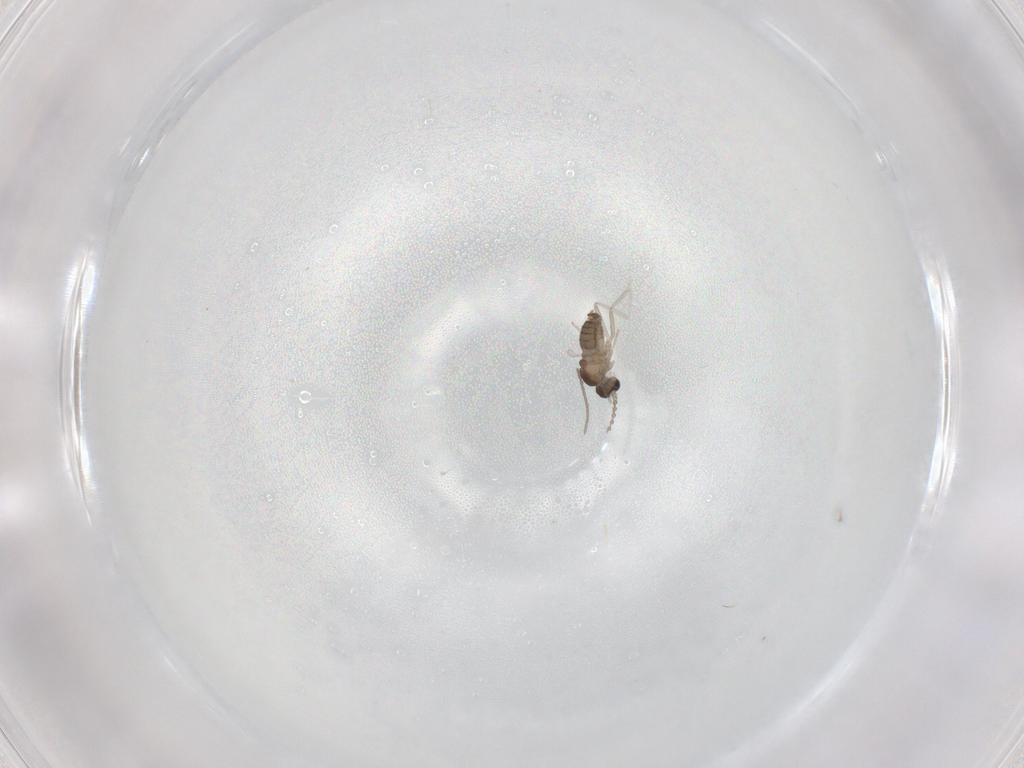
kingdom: Animalia
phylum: Arthropoda
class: Insecta
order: Diptera
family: Cecidomyiidae
